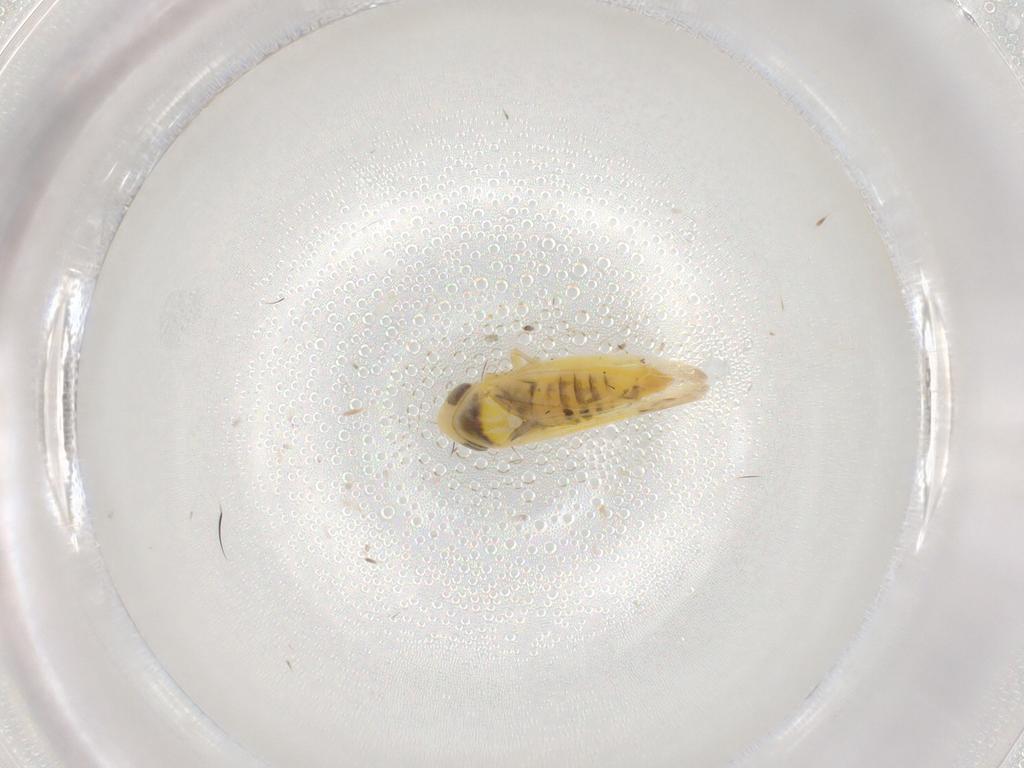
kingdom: Animalia
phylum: Arthropoda
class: Insecta
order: Hemiptera
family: Cicadellidae
